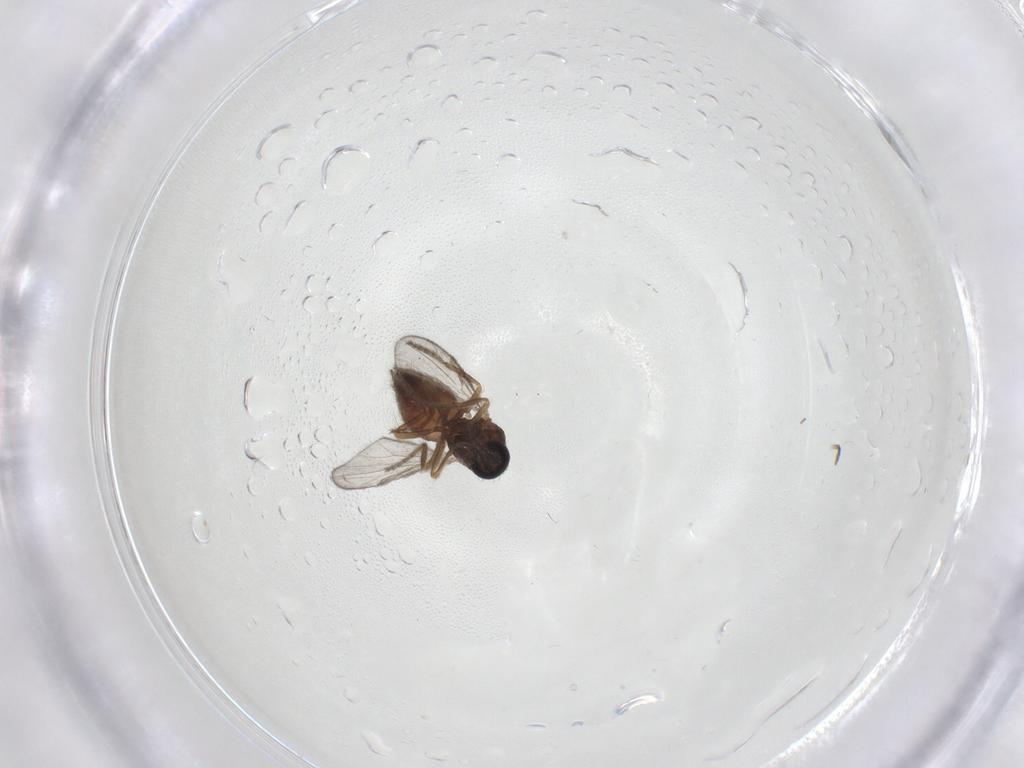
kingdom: Animalia
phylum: Arthropoda
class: Insecta
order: Diptera
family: Ceratopogonidae
